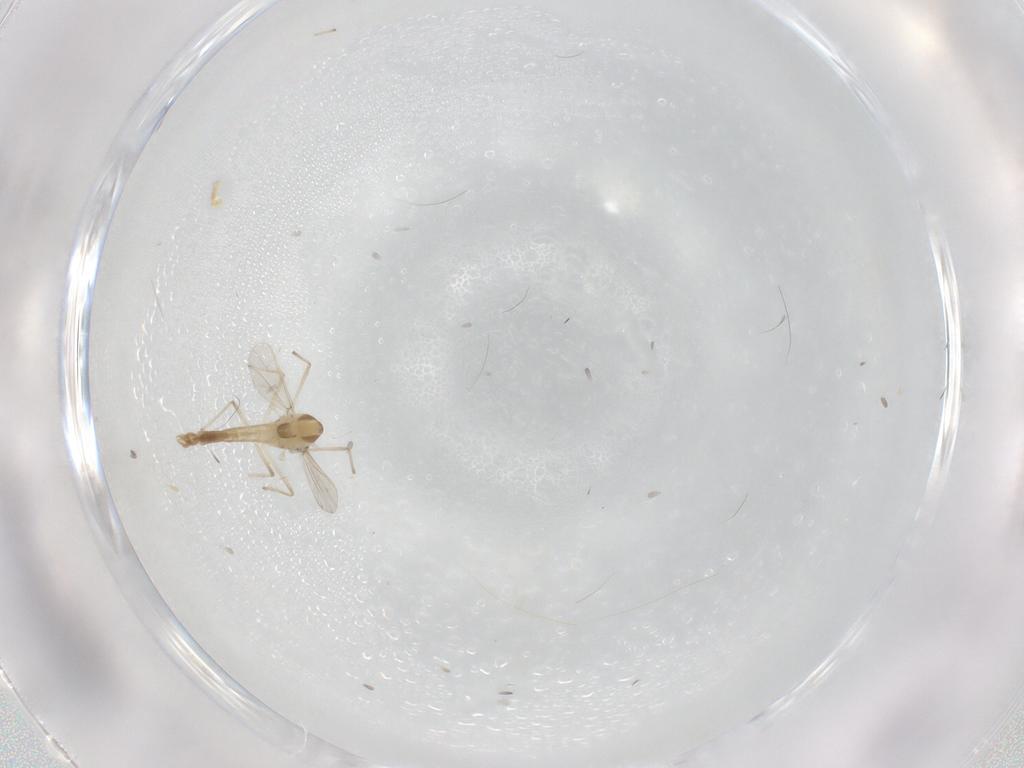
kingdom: Animalia
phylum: Arthropoda
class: Insecta
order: Diptera
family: Chironomidae
